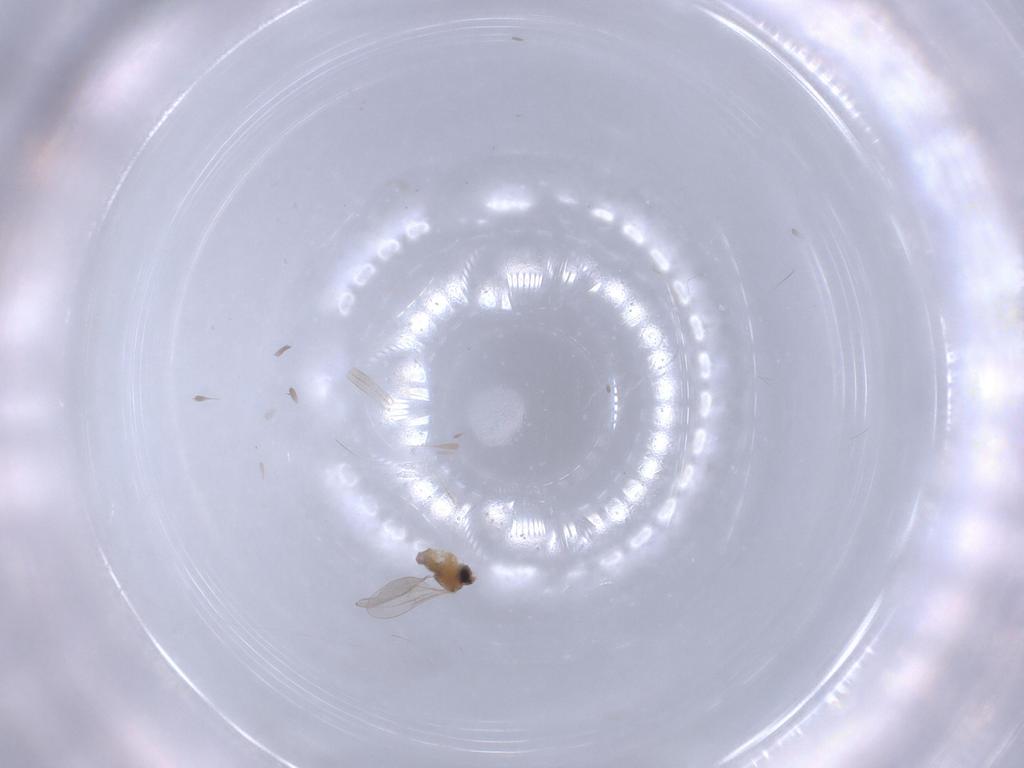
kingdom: Animalia
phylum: Arthropoda
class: Insecta
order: Diptera
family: Cecidomyiidae
